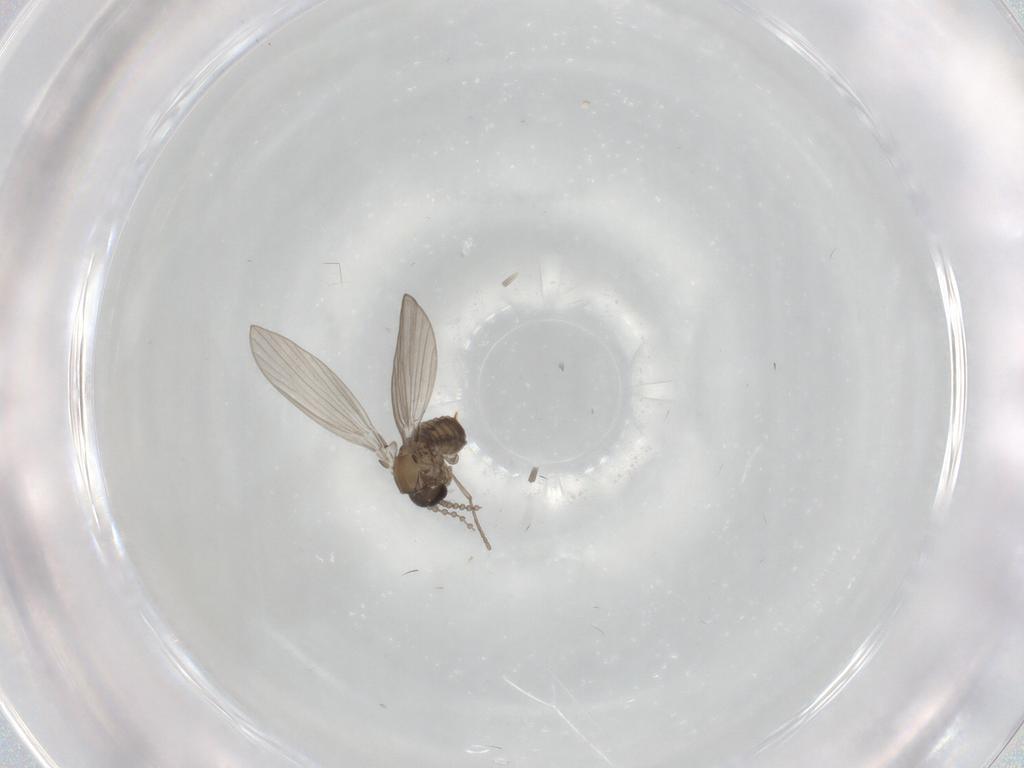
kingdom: Animalia
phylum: Arthropoda
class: Insecta
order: Diptera
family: Psychodidae
